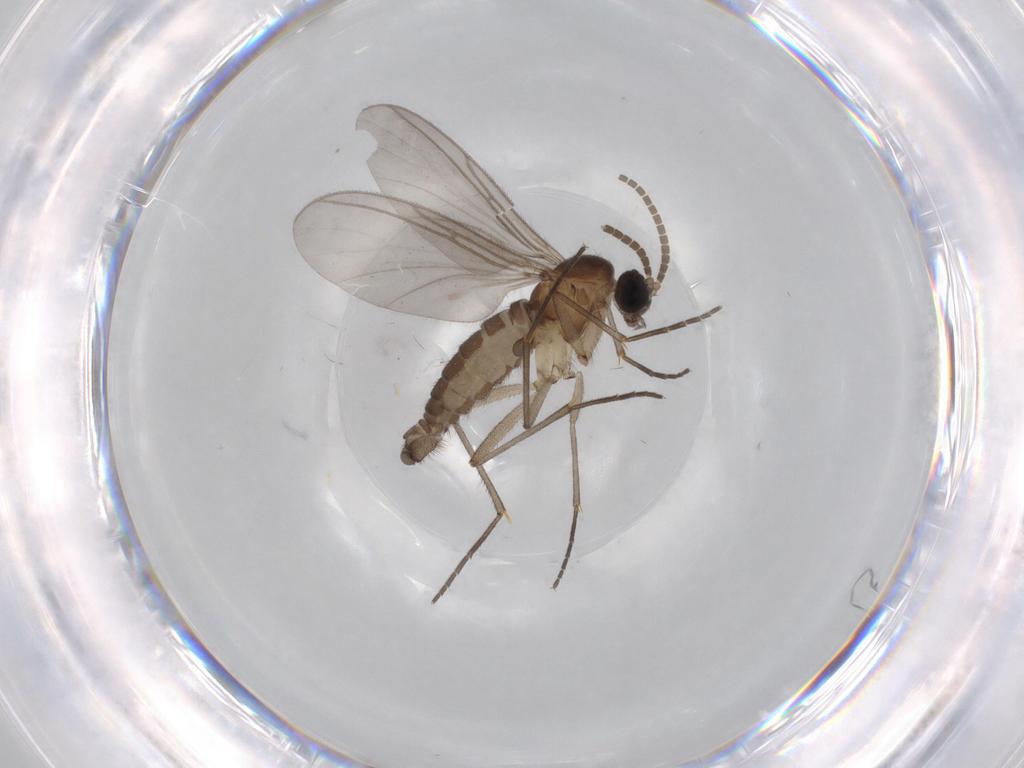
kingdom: Animalia
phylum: Arthropoda
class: Insecta
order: Diptera
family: Dolichopodidae
